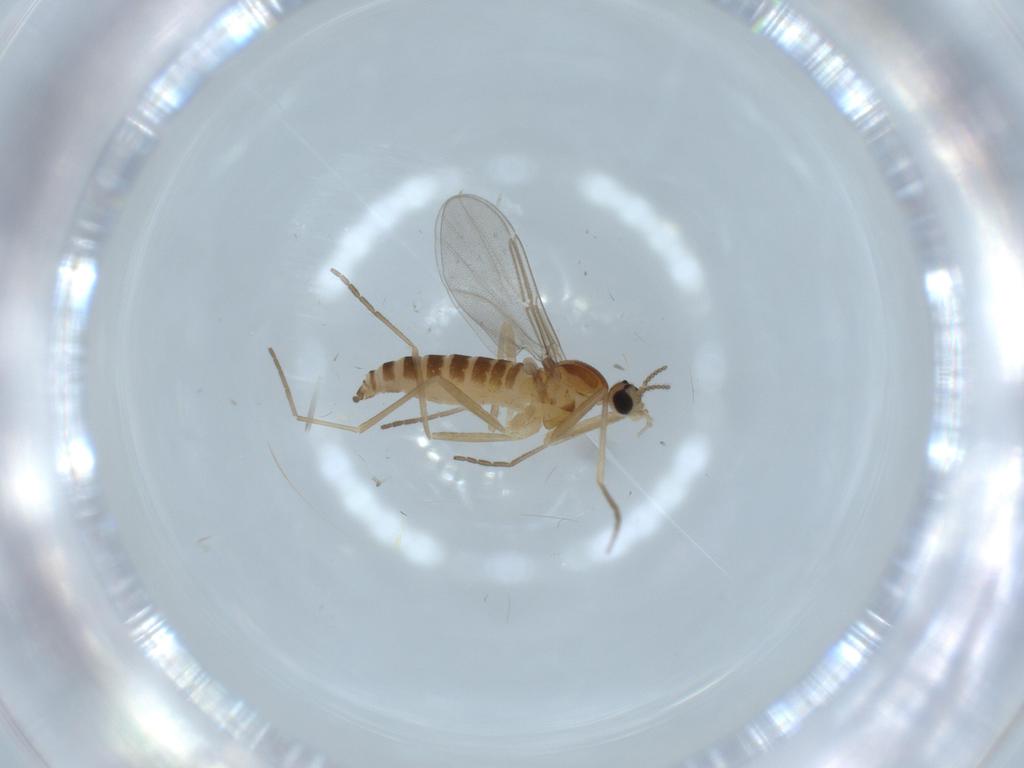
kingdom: Animalia
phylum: Arthropoda
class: Insecta
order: Diptera
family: Cecidomyiidae
